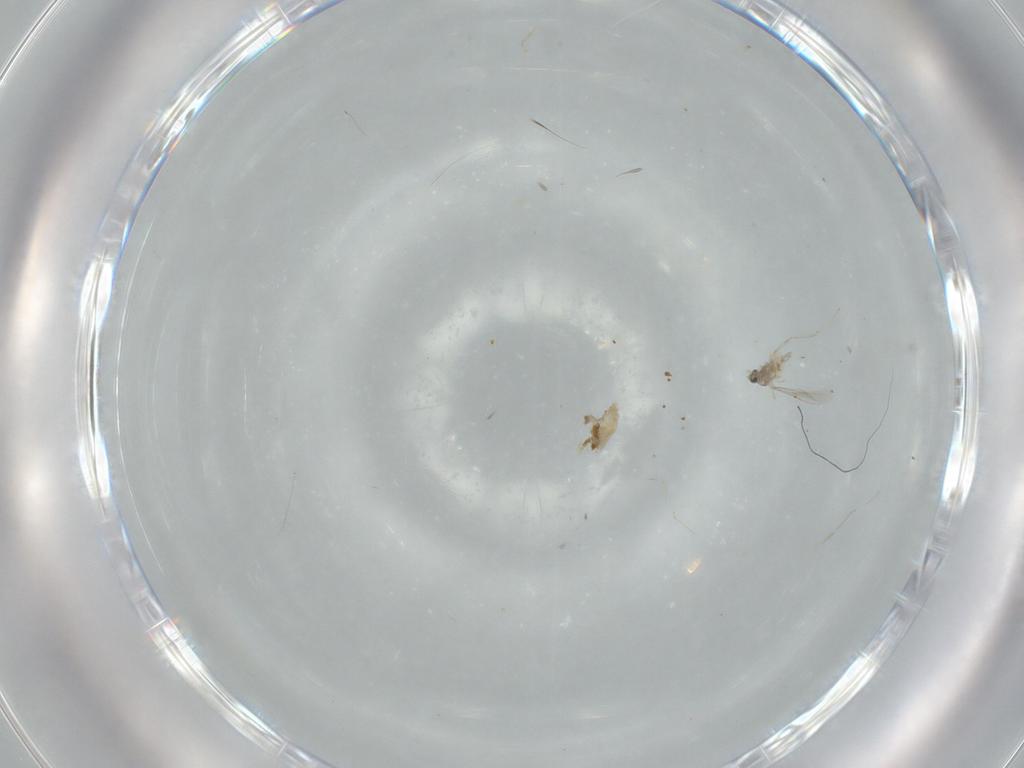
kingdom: Animalia
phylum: Arthropoda
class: Insecta
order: Diptera
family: Cecidomyiidae
